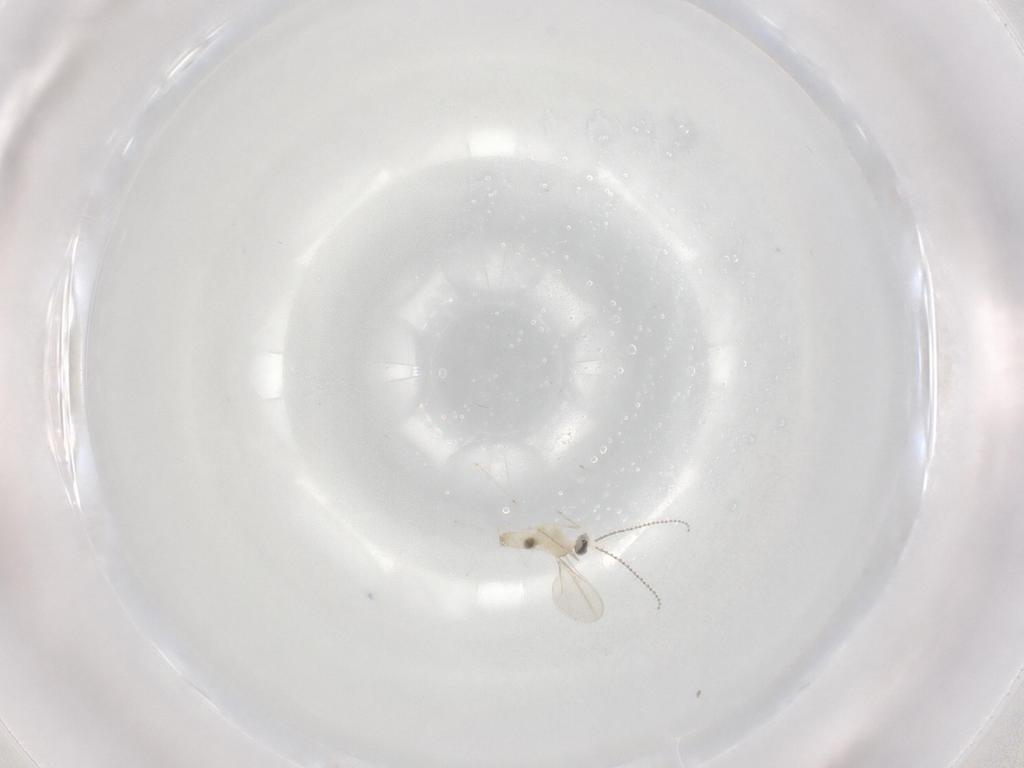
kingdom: Animalia
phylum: Arthropoda
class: Insecta
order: Diptera
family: Cecidomyiidae
